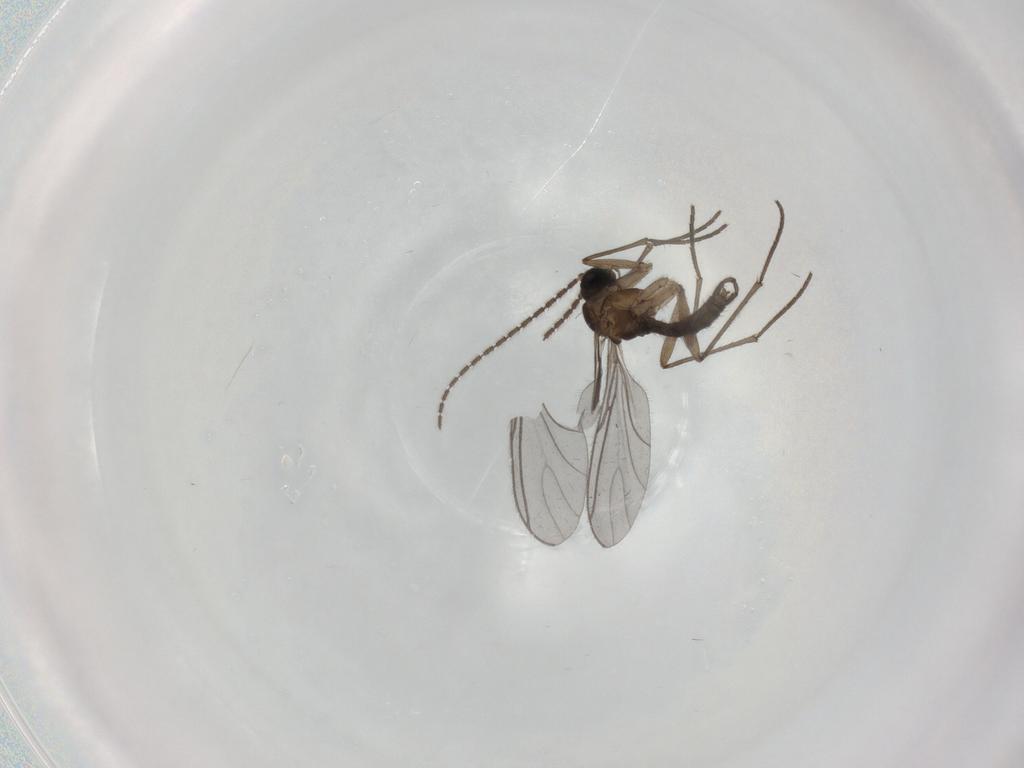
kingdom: Animalia
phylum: Arthropoda
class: Insecta
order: Diptera
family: Sciaridae
